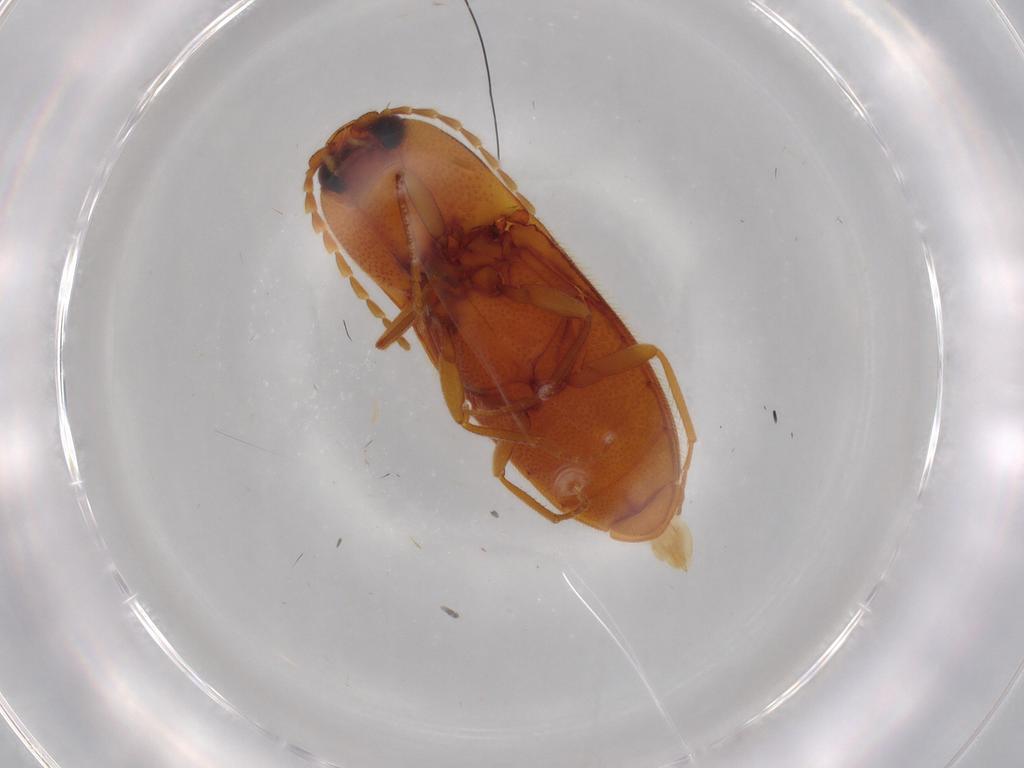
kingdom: Animalia
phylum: Arthropoda
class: Insecta
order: Coleoptera
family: Elateridae
